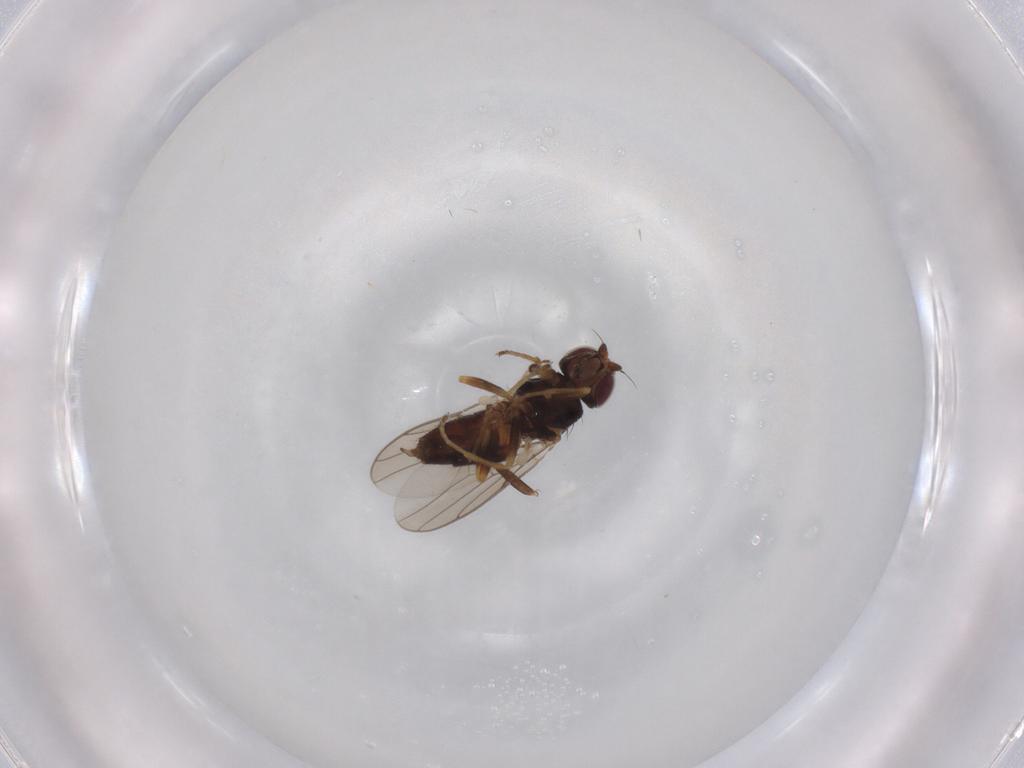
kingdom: Animalia
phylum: Arthropoda
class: Insecta
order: Diptera
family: Chloropidae
